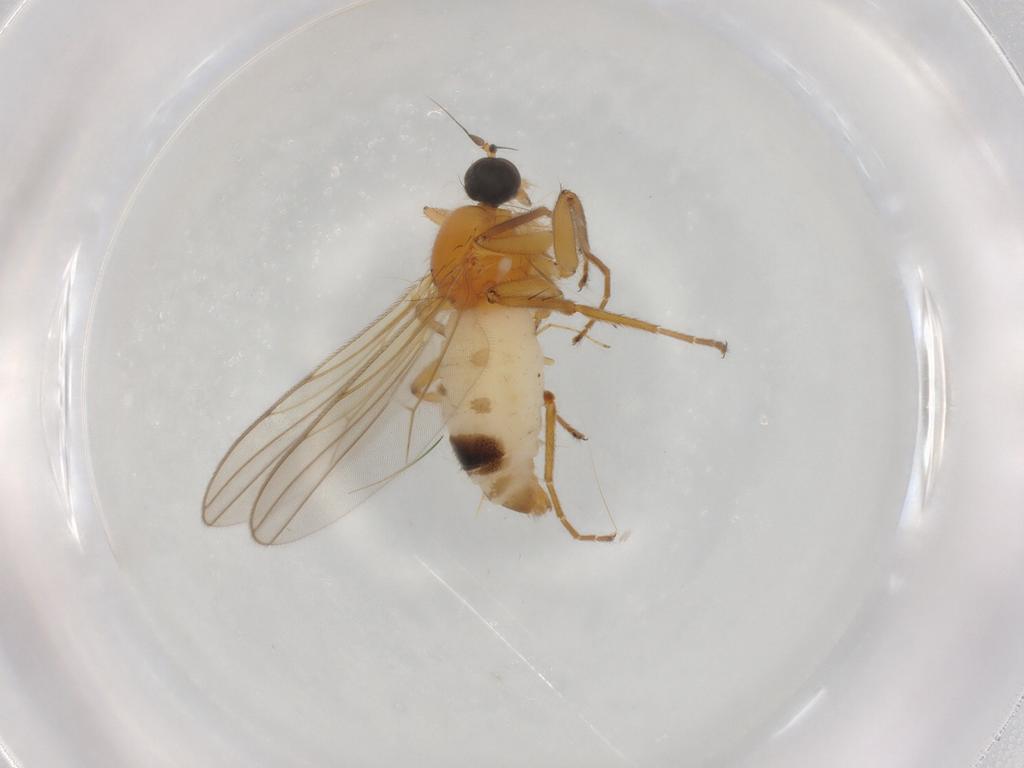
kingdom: Animalia
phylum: Arthropoda
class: Insecta
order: Diptera
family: Hybotidae
